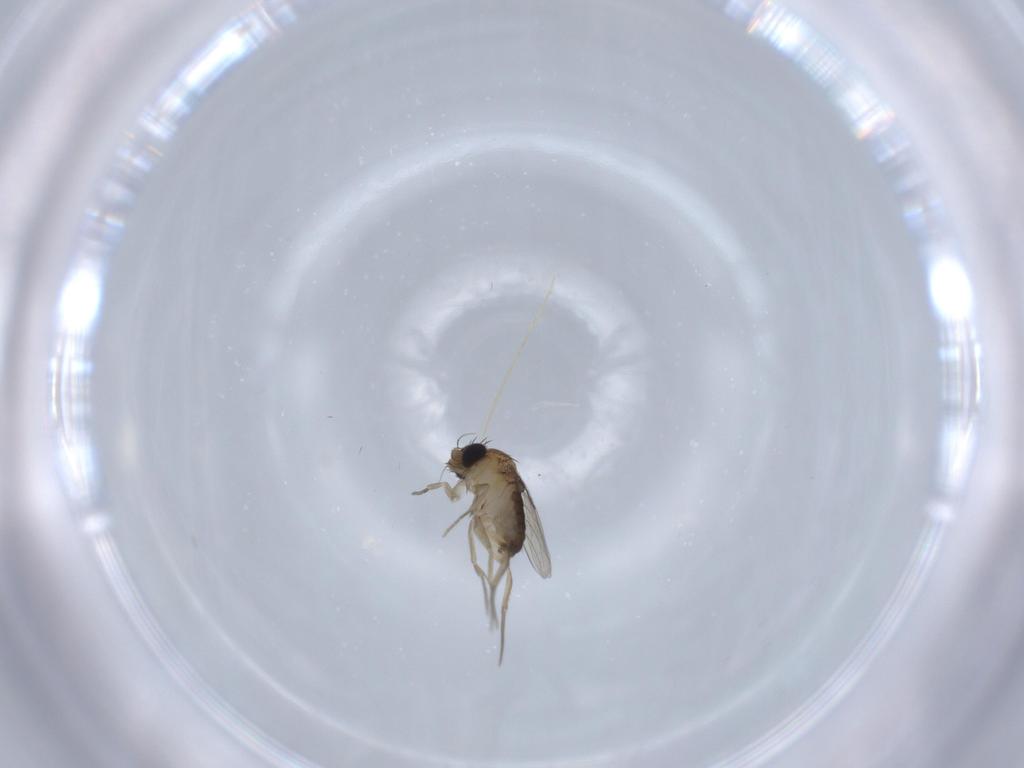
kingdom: Animalia
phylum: Arthropoda
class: Insecta
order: Diptera
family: Phoridae
